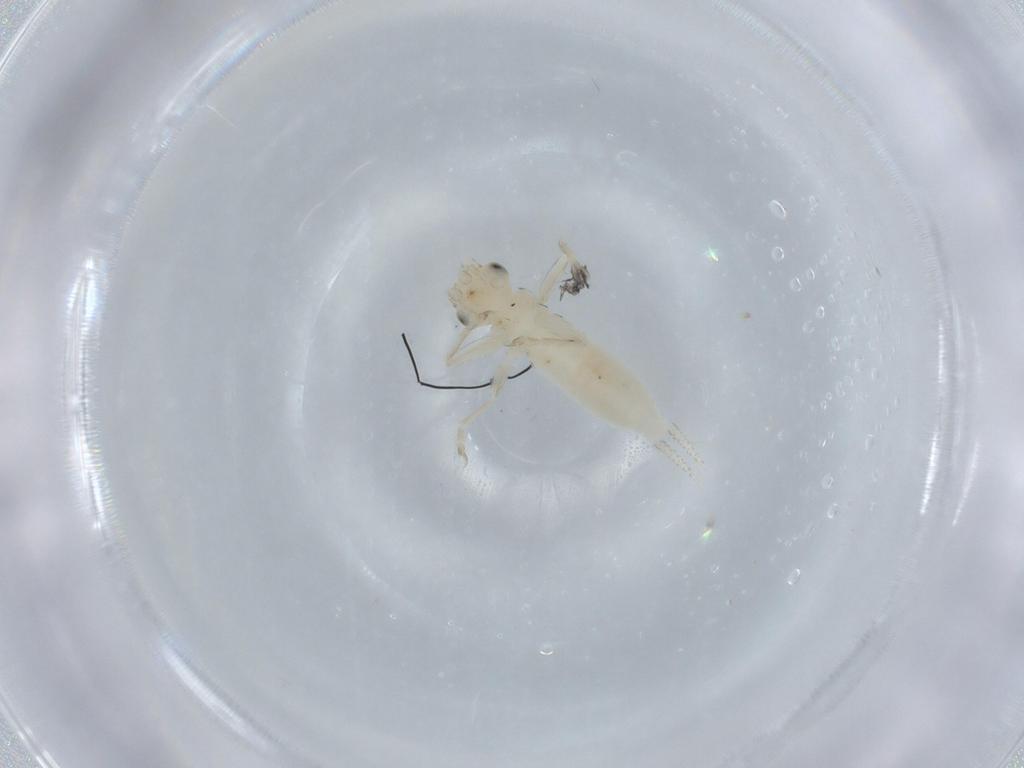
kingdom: Animalia
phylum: Arthropoda
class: Insecta
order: Orthoptera
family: Trigonidiidae
